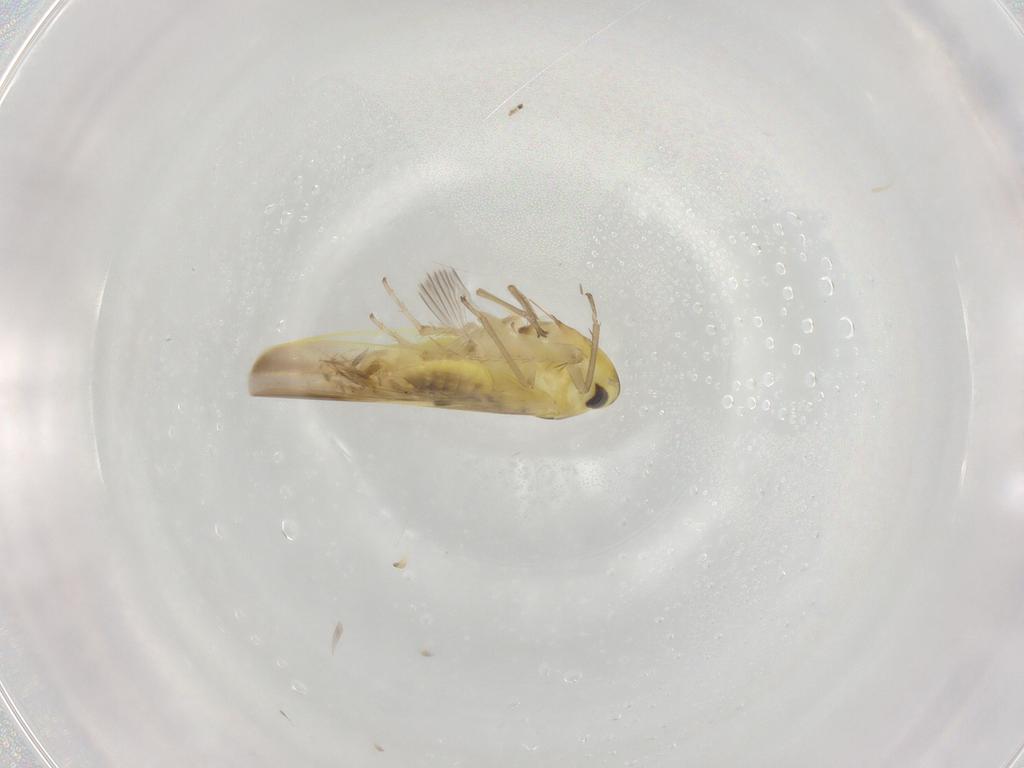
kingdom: Animalia
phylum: Arthropoda
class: Insecta
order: Hemiptera
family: Cicadellidae
